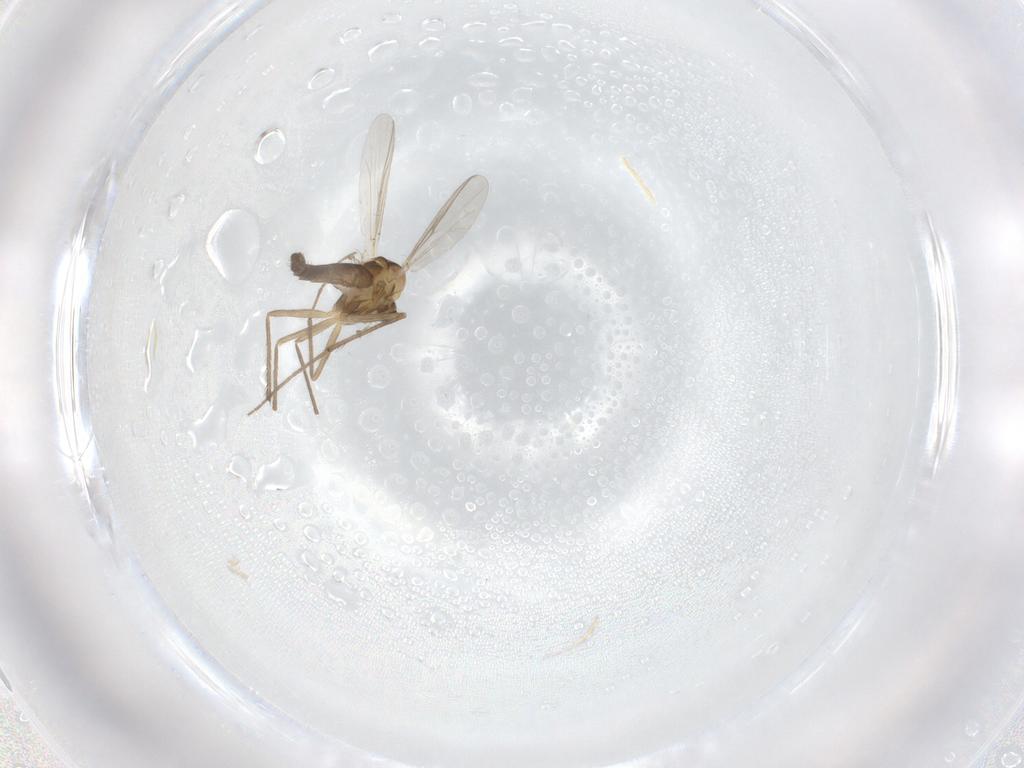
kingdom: Animalia
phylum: Arthropoda
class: Insecta
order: Diptera
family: Chironomidae
